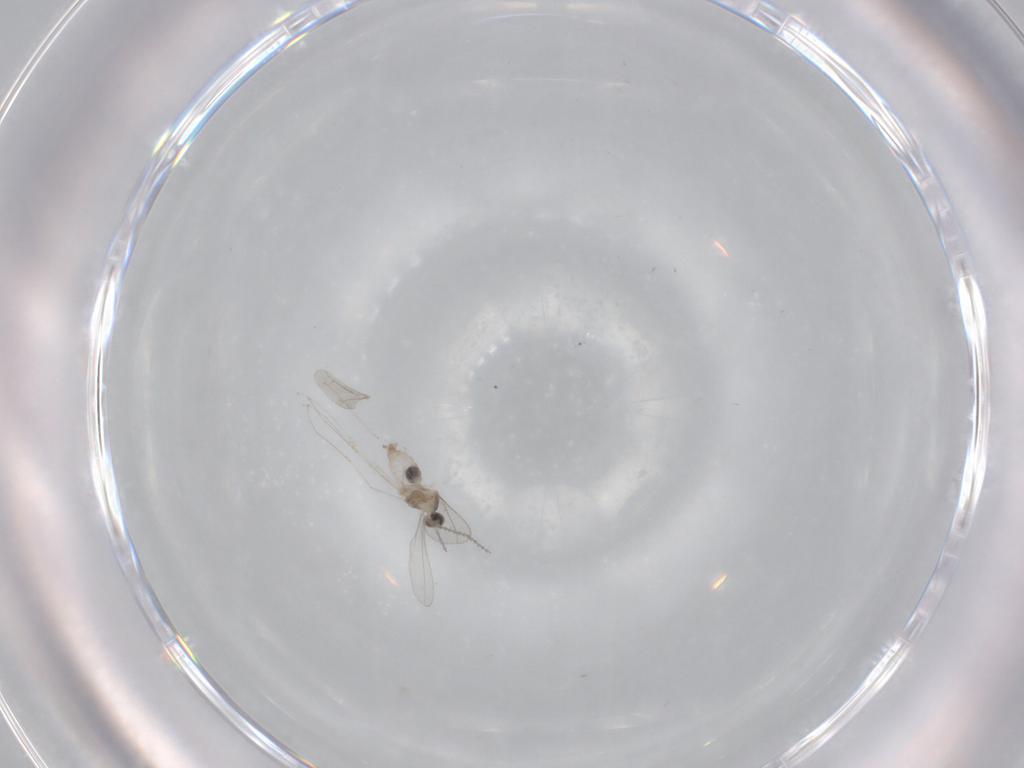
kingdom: Animalia
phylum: Arthropoda
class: Insecta
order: Diptera
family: Cecidomyiidae
